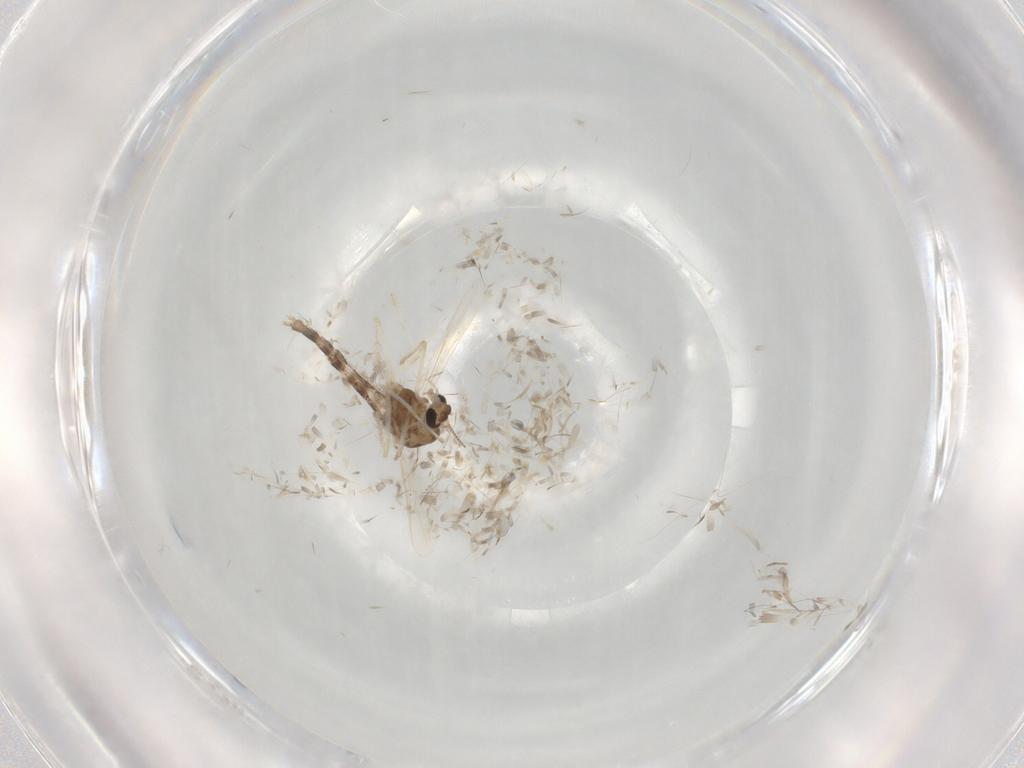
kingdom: Animalia
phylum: Arthropoda
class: Insecta
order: Diptera
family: Chironomidae
